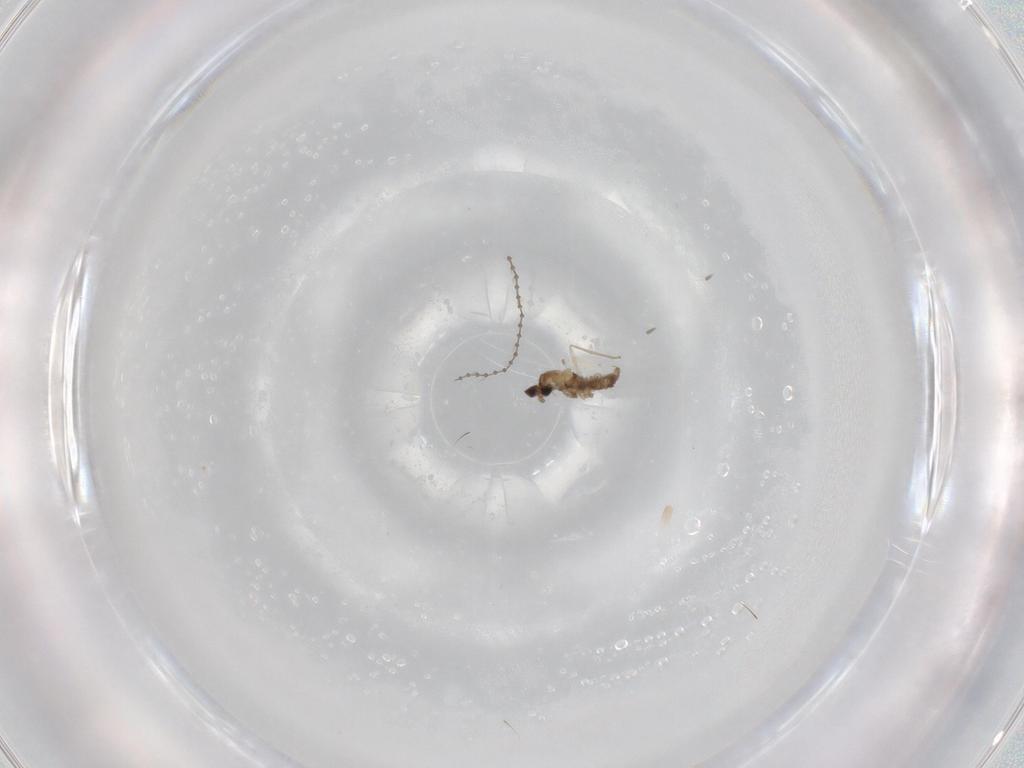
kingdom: Animalia
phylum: Arthropoda
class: Insecta
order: Diptera
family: Cecidomyiidae
